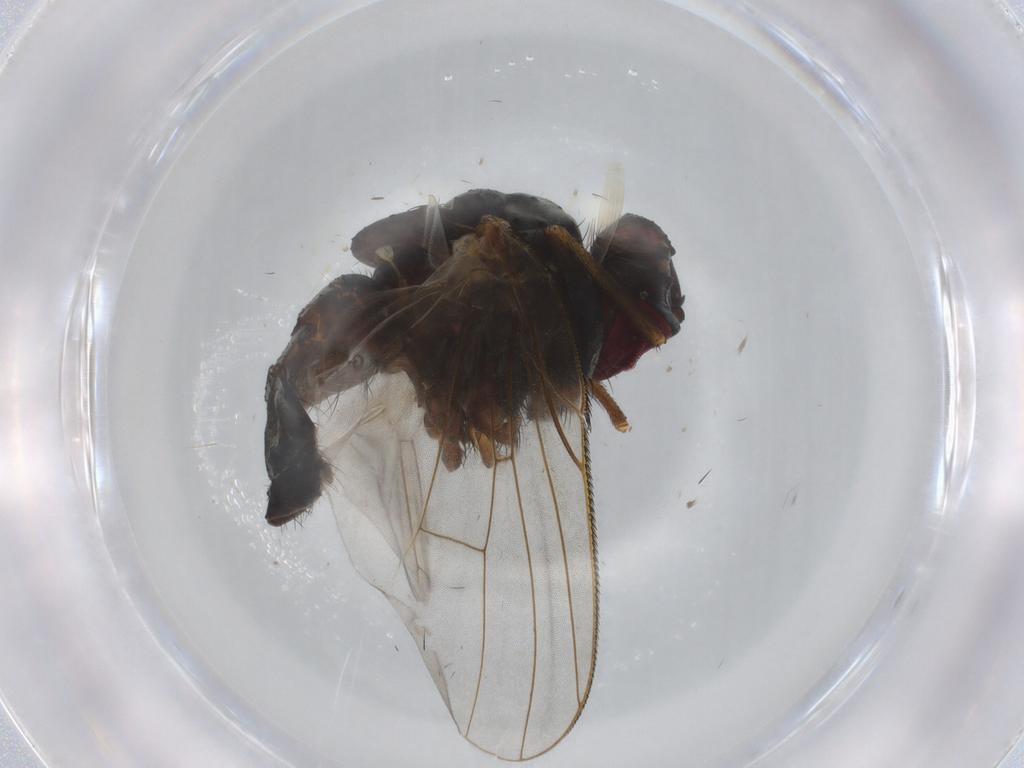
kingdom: Animalia
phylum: Arthropoda
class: Insecta
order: Diptera
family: Muscidae
